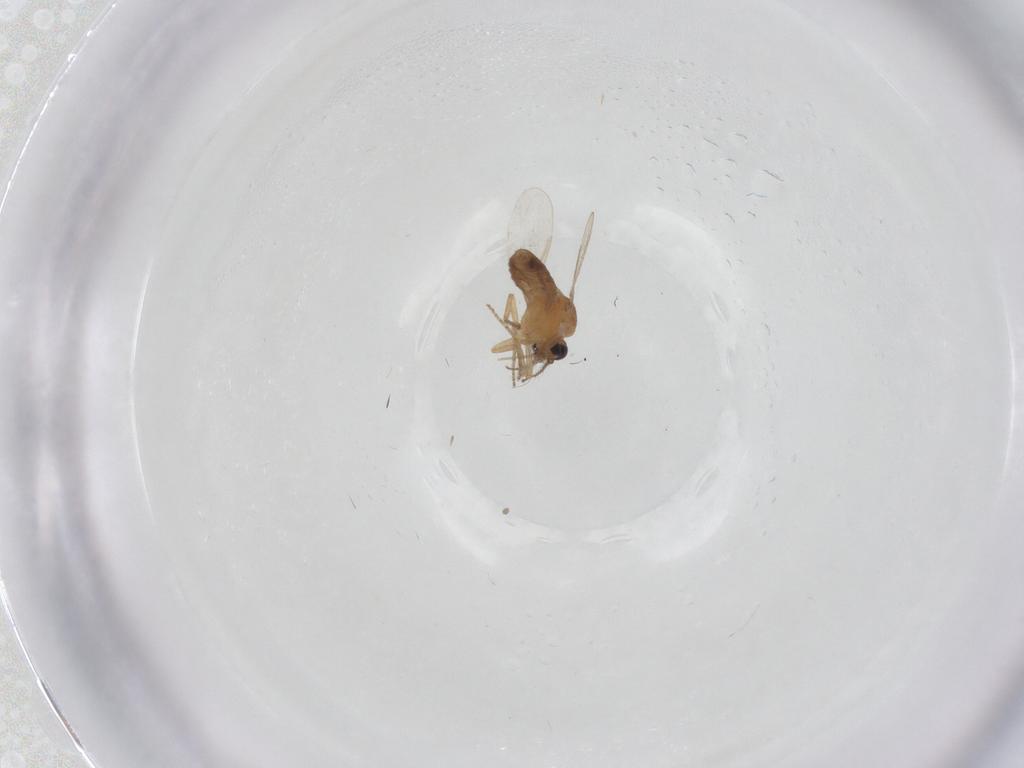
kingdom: Animalia
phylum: Arthropoda
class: Insecta
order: Diptera
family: Ceratopogonidae
